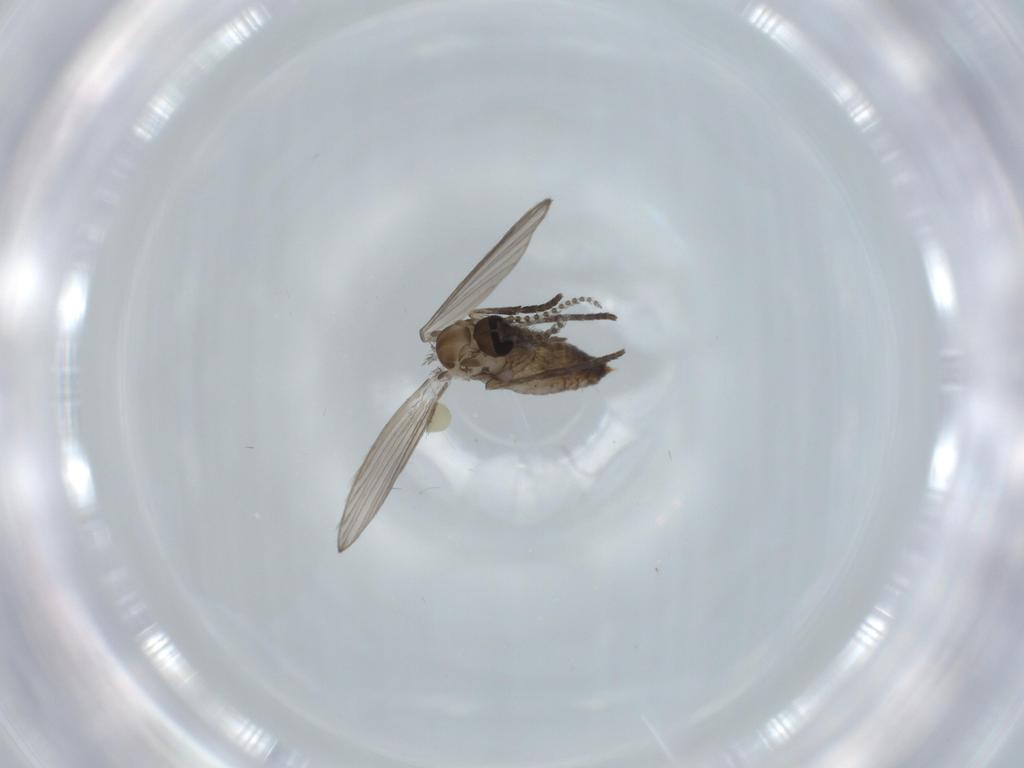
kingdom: Animalia
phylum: Arthropoda
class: Insecta
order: Diptera
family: Psychodidae
